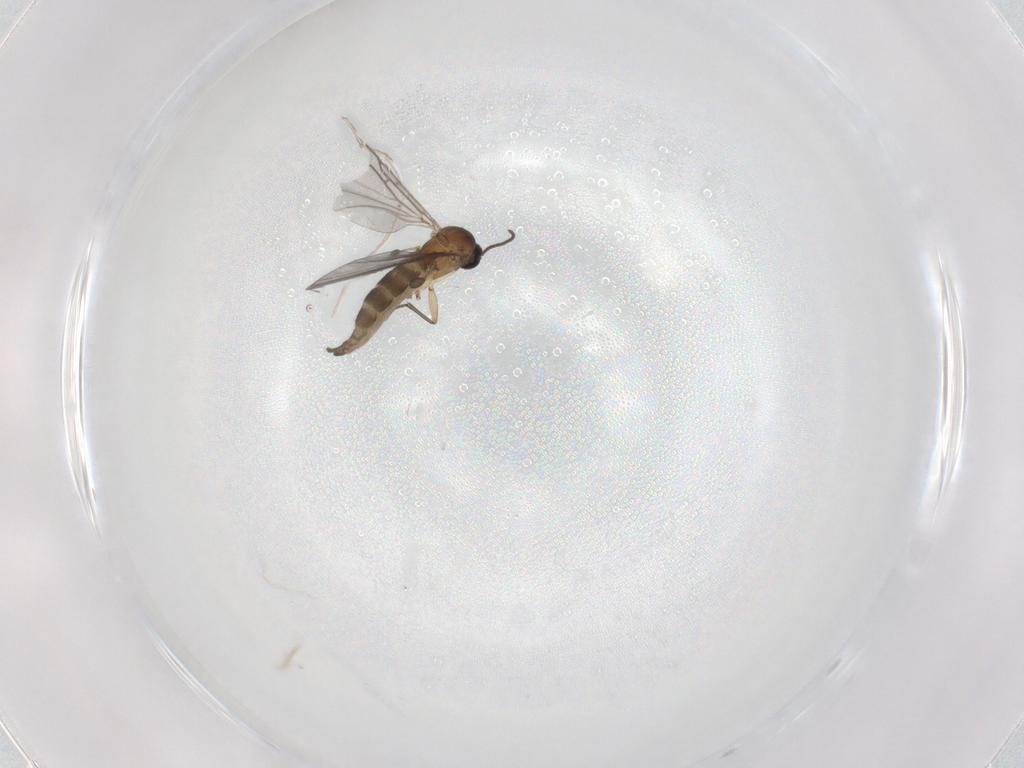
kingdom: Animalia
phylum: Arthropoda
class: Insecta
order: Diptera
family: Sciaridae
